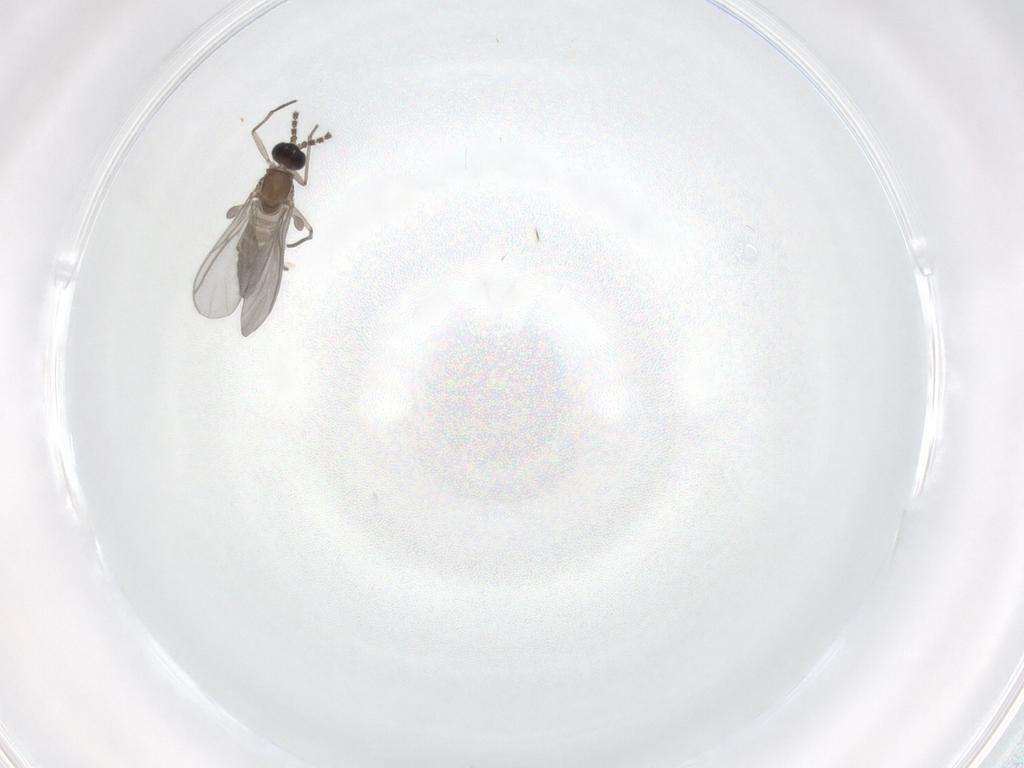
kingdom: Animalia
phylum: Arthropoda
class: Insecta
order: Diptera
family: Chironomidae
